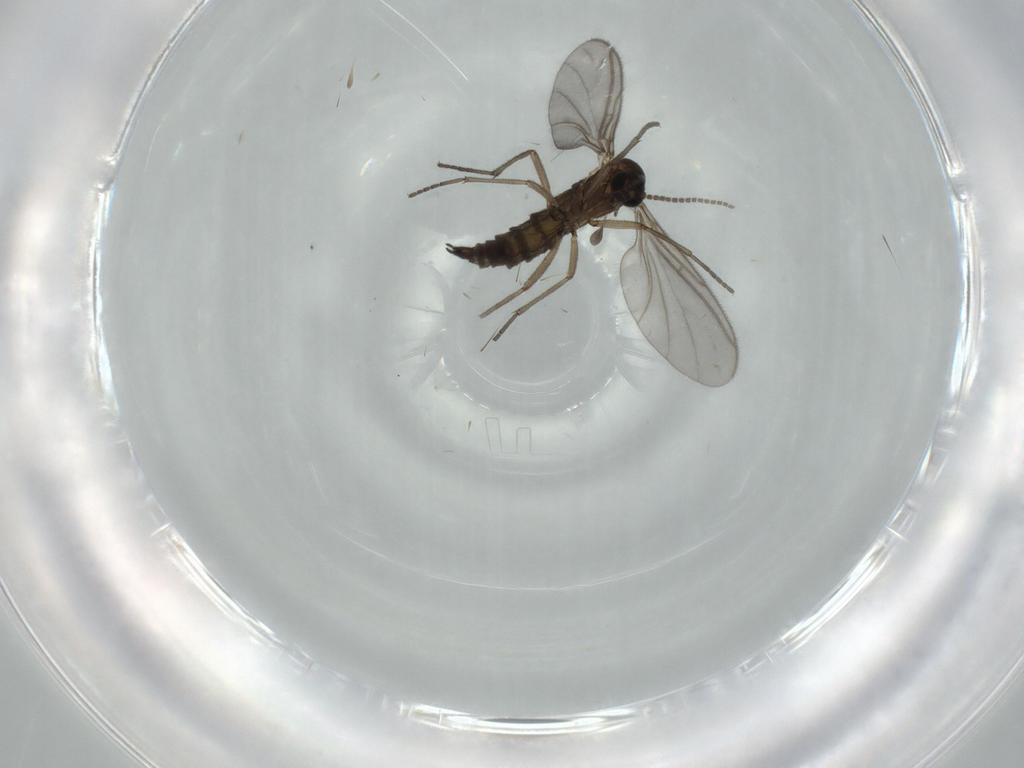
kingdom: Animalia
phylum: Arthropoda
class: Insecta
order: Diptera
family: Sciaridae
